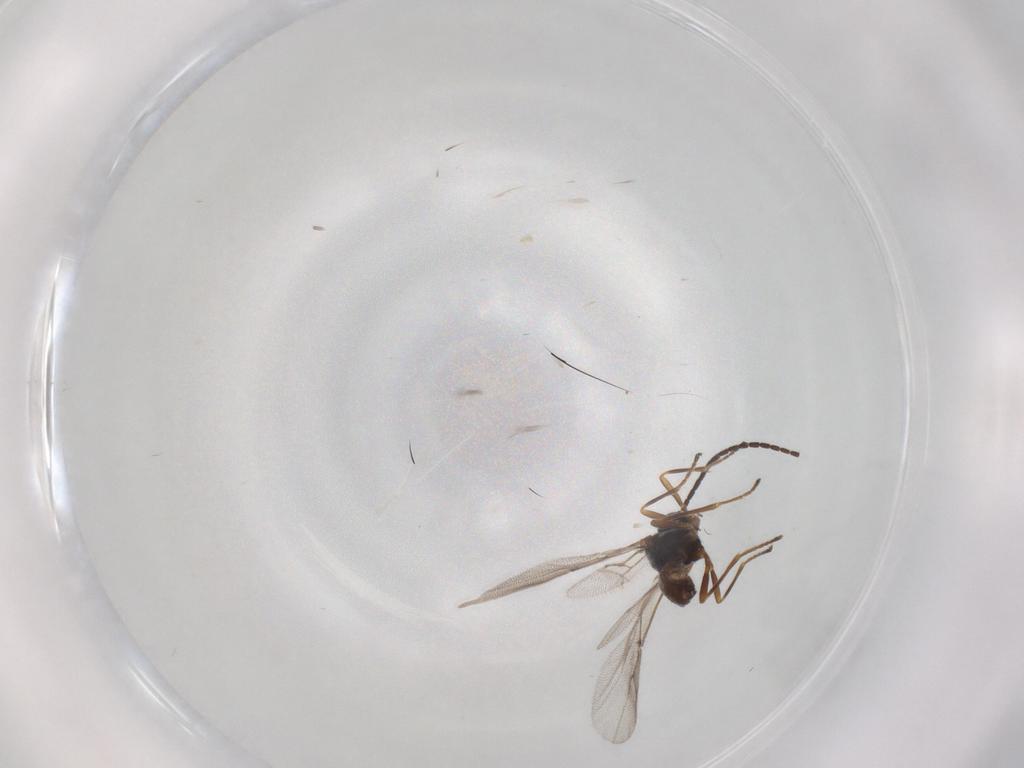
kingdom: Animalia
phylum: Arthropoda
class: Insecta
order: Hymenoptera
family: Braconidae
